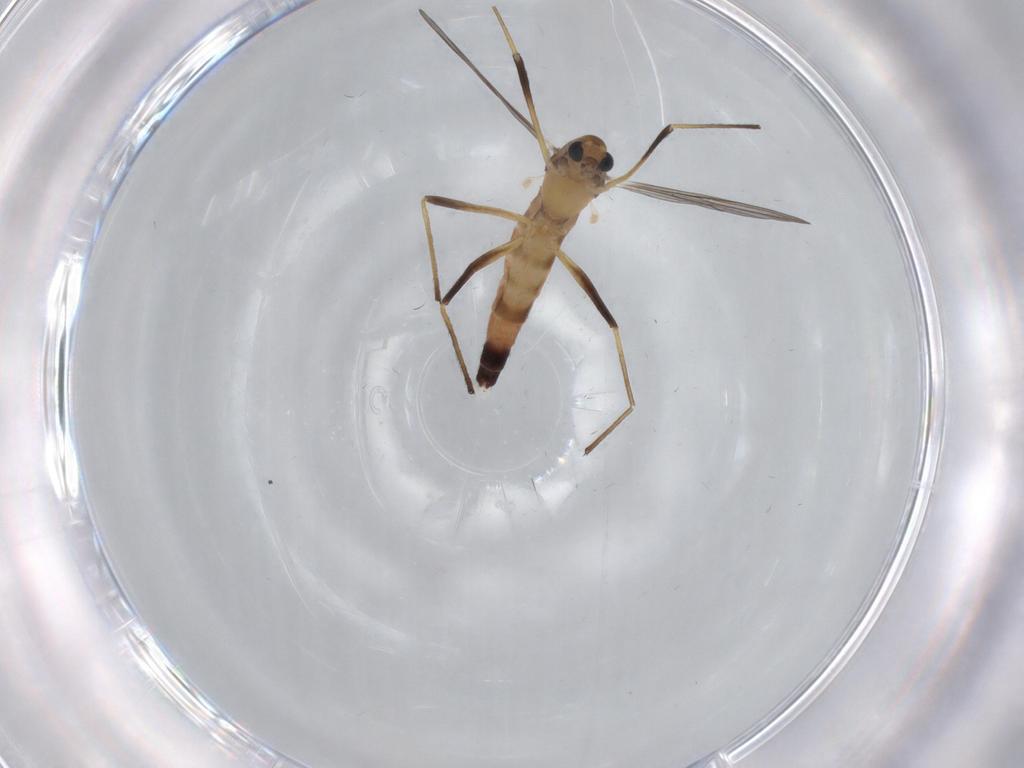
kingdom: Animalia
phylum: Arthropoda
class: Insecta
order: Diptera
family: Chironomidae
